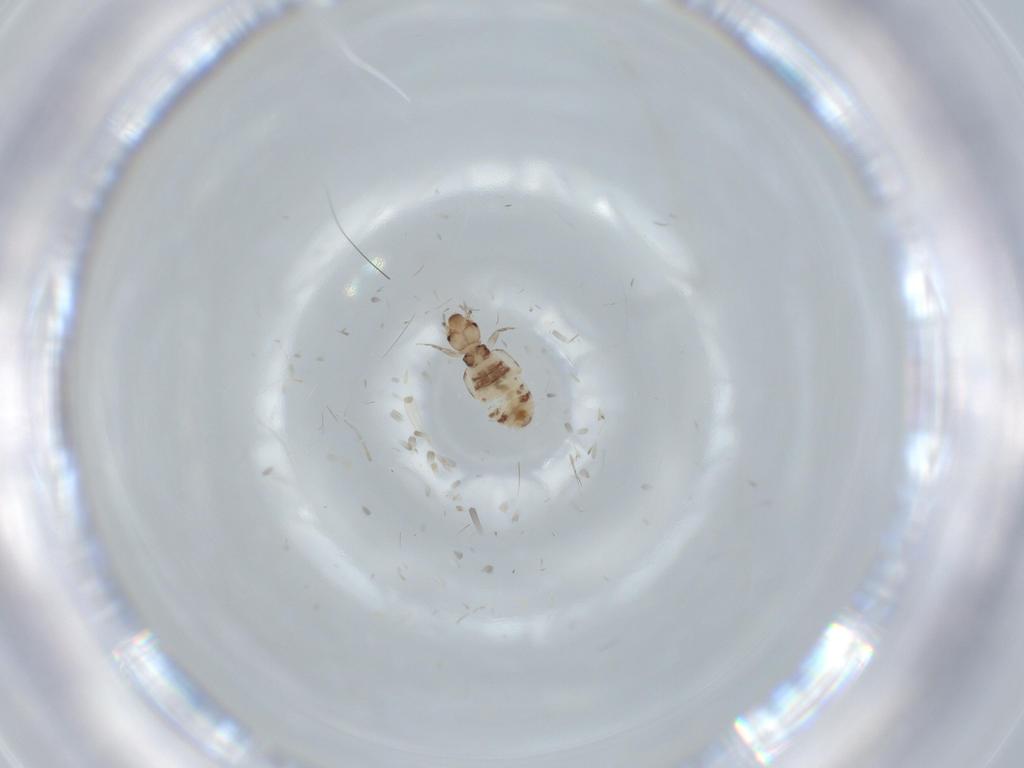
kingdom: Animalia
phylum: Arthropoda
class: Insecta
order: Psocodea
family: Liposcelididae
